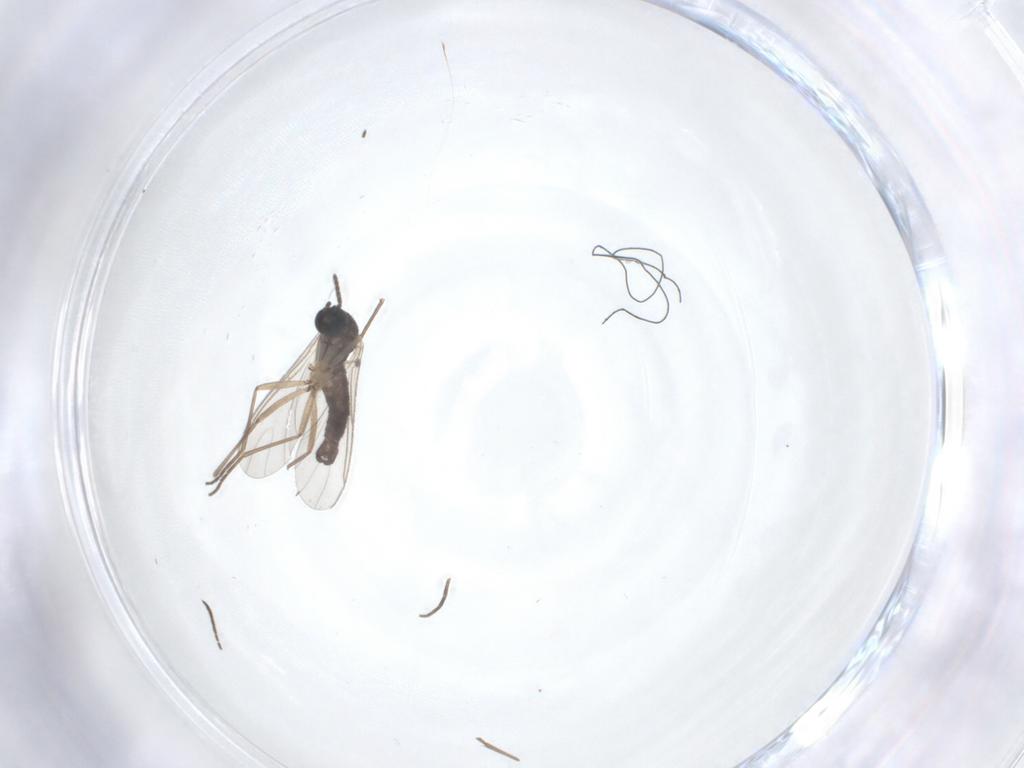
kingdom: Animalia
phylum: Arthropoda
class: Insecta
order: Diptera
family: Sciaridae
